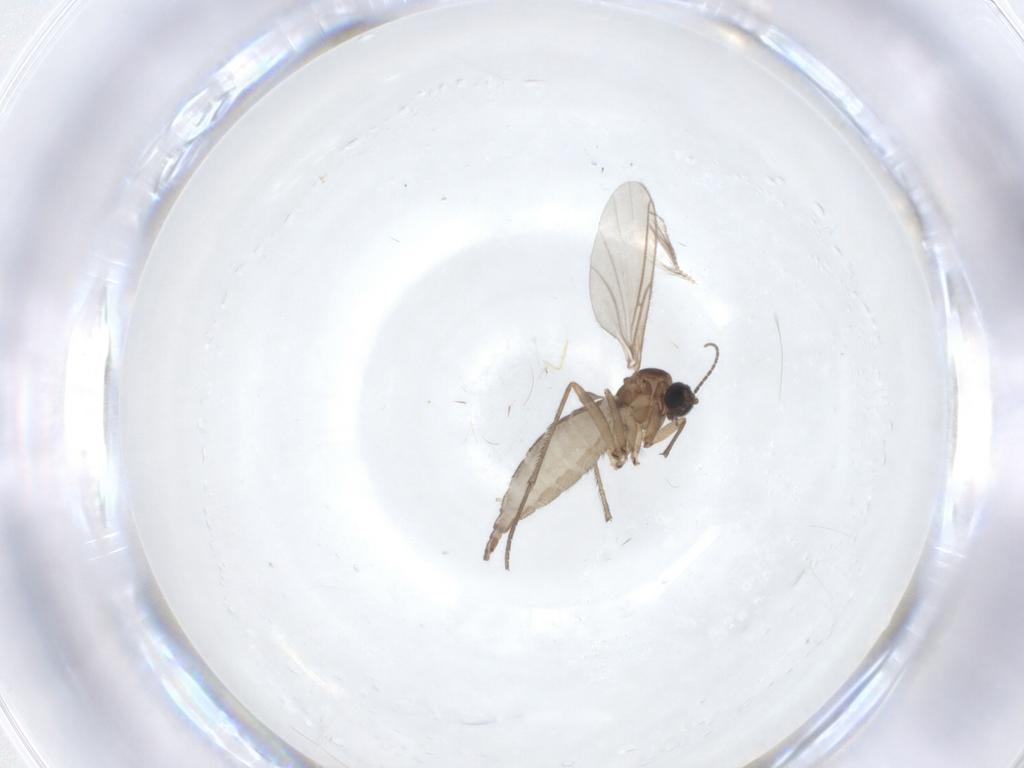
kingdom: Animalia
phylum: Arthropoda
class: Insecta
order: Diptera
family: Sciaridae
